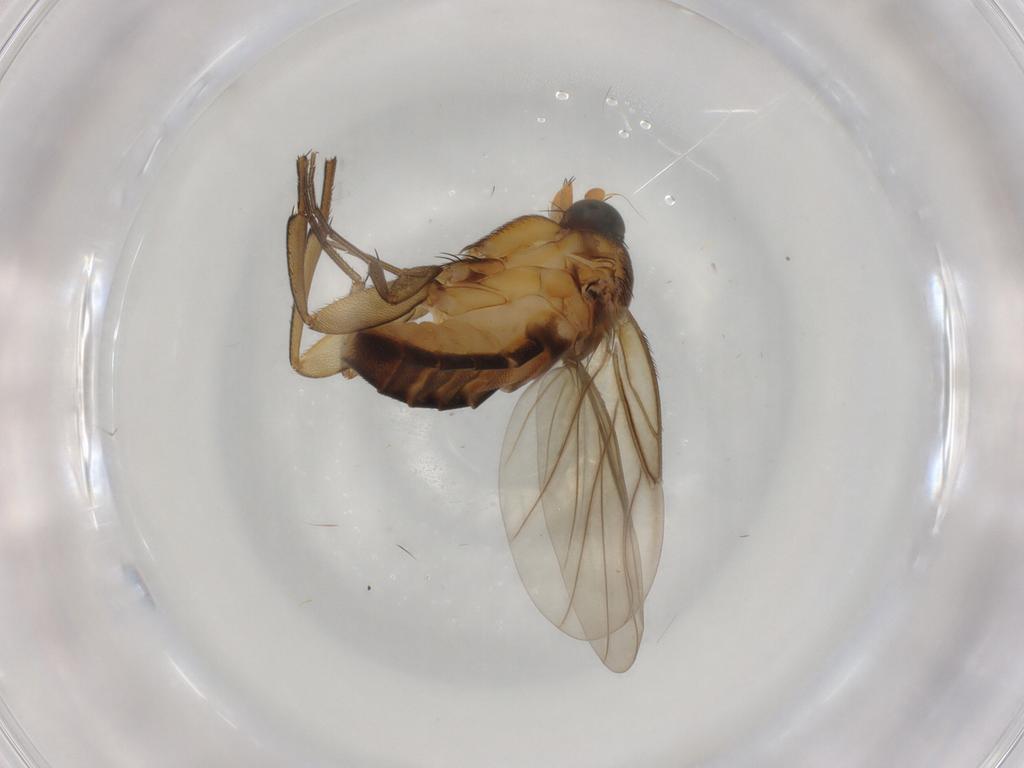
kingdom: Animalia
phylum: Arthropoda
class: Insecta
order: Diptera
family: Phoridae
